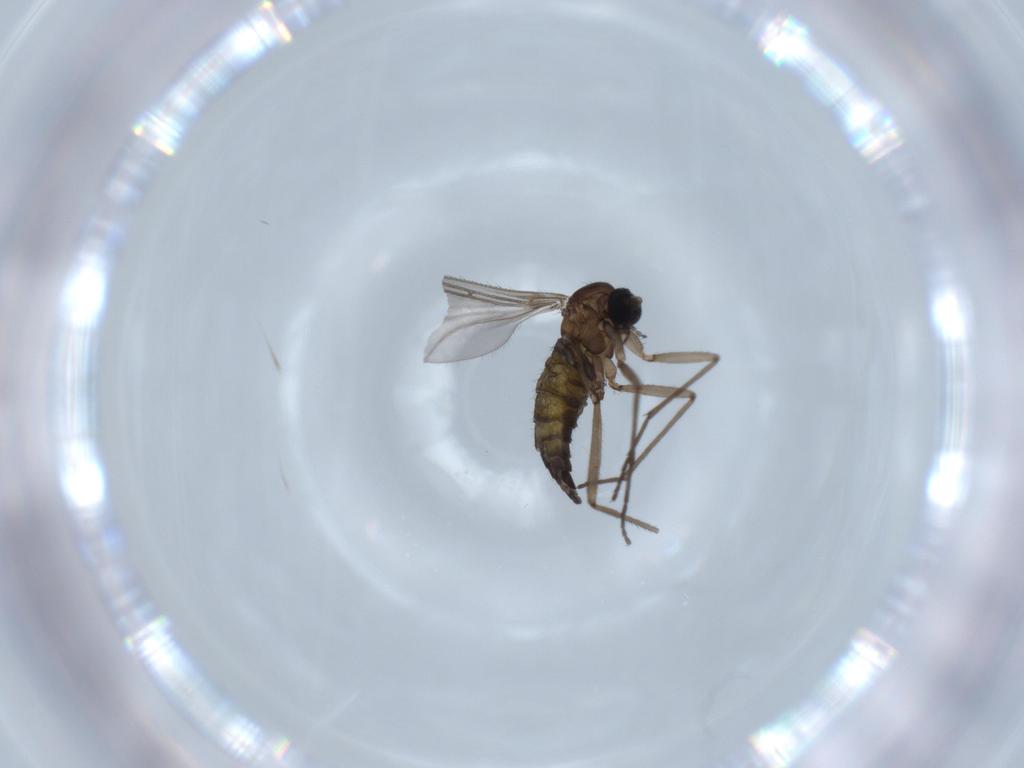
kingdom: Animalia
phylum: Arthropoda
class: Insecta
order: Diptera
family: Sciaridae
